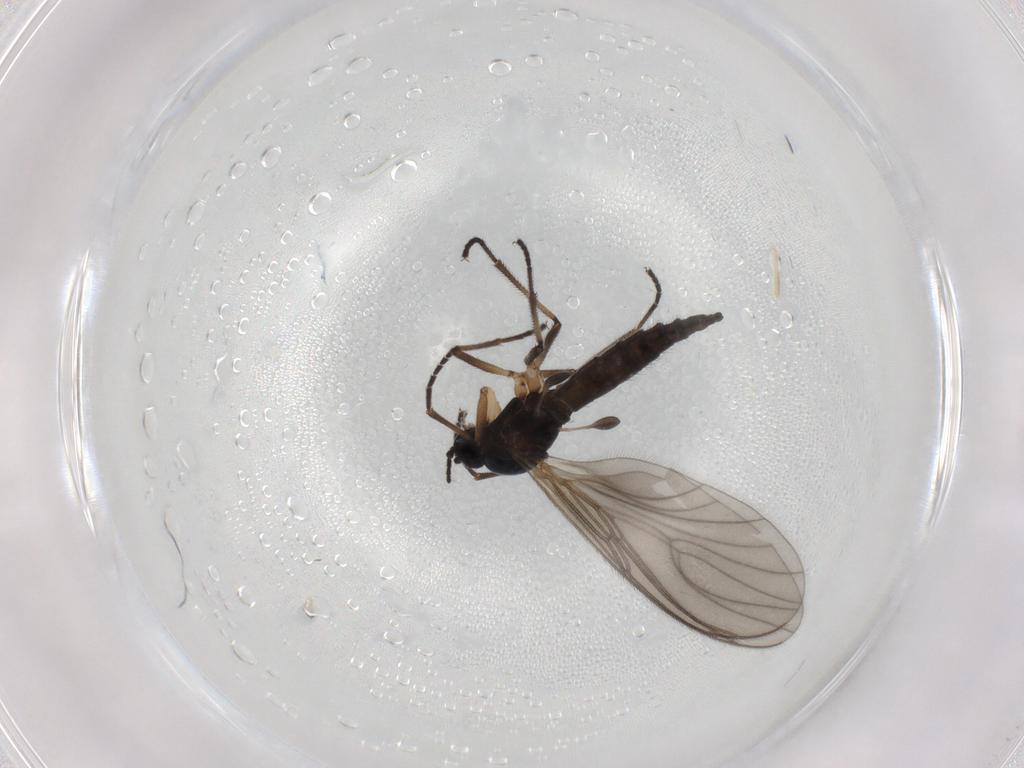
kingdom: Animalia
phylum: Arthropoda
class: Insecta
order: Diptera
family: Sciaridae
